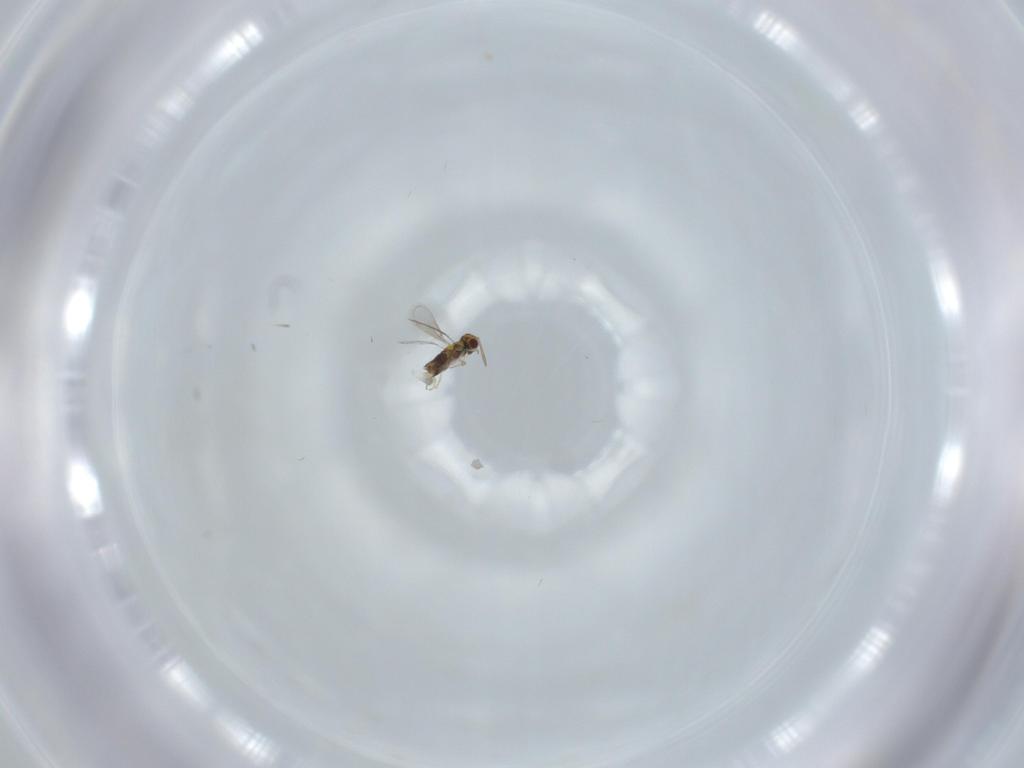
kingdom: Animalia
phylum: Arthropoda
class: Insecta
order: Hymenoptera
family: Aphelinidae
